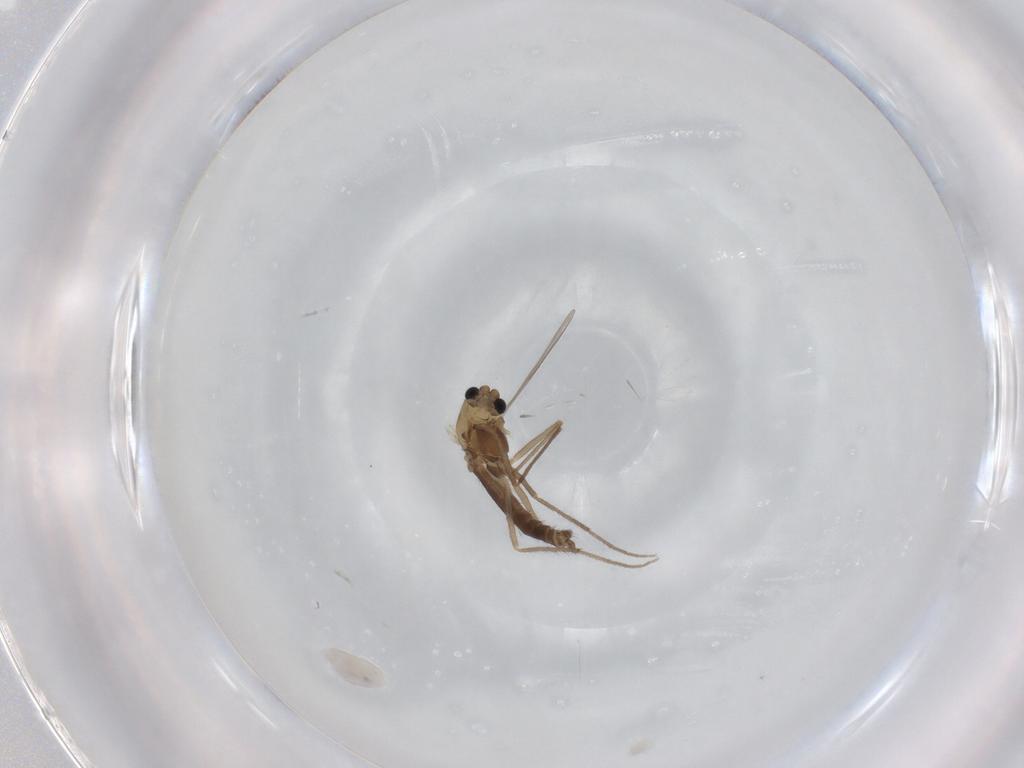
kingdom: Animalia
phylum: Arthropoda
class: Insecta
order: Diptera
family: Chironomidae
